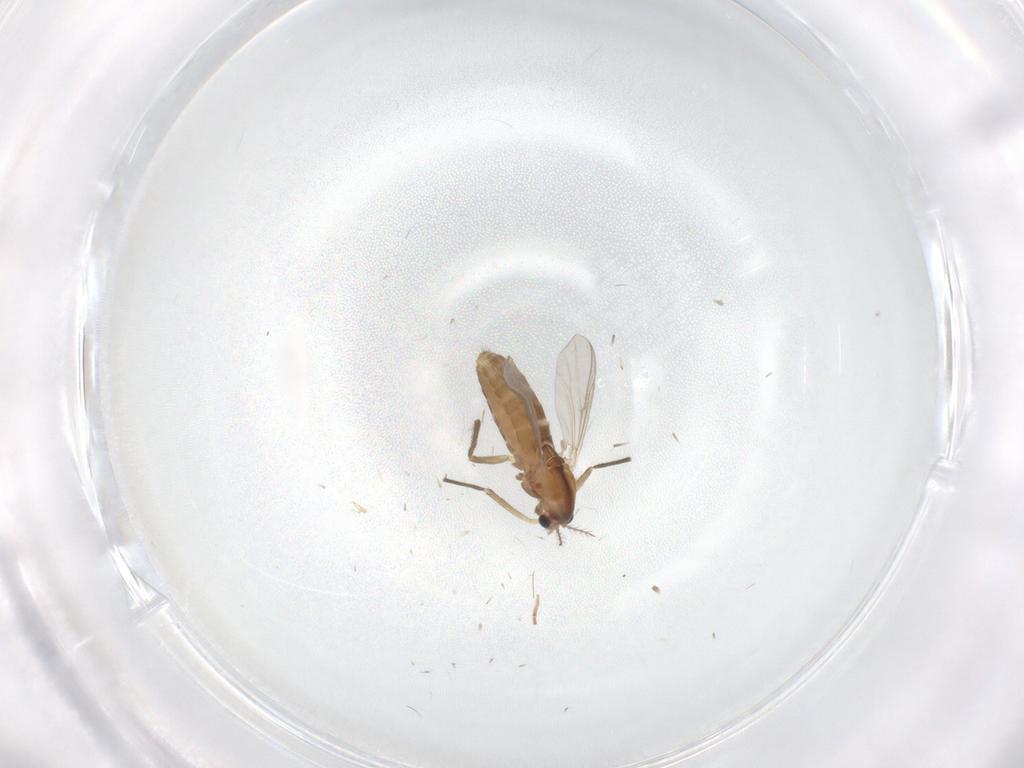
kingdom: Animalia
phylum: Arthropoda
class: Insecta
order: Diptera
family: Chironomidae
